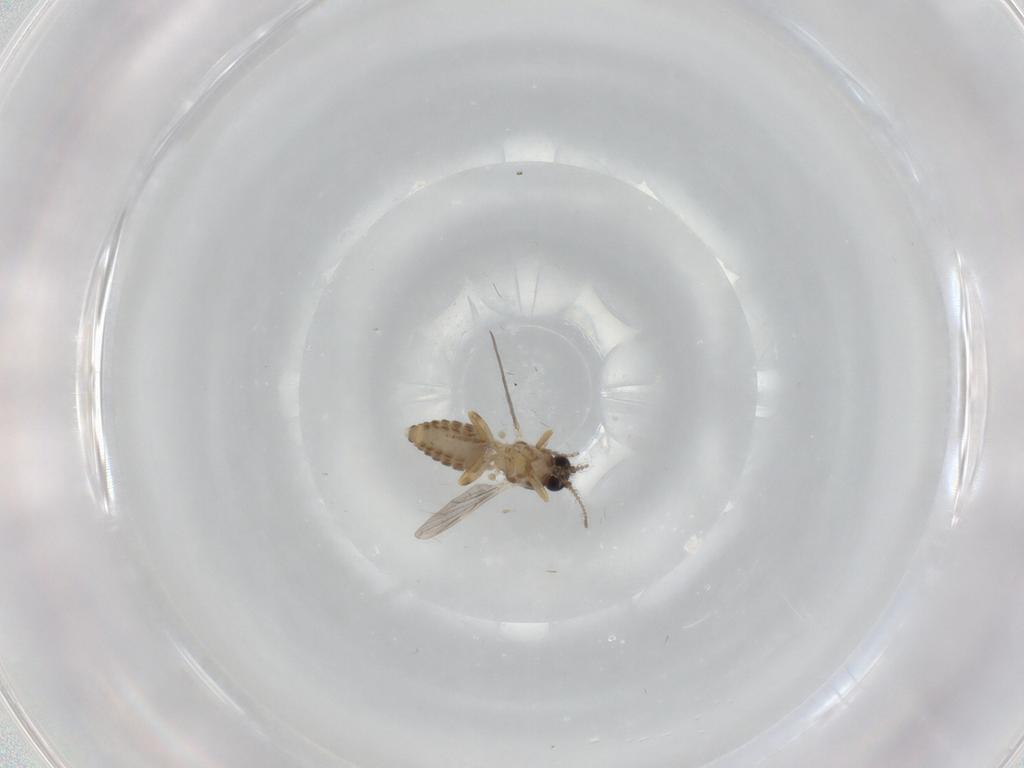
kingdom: Animalia
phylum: Arthropoda
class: Insecta
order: Diptera
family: Ceratopogonidae
